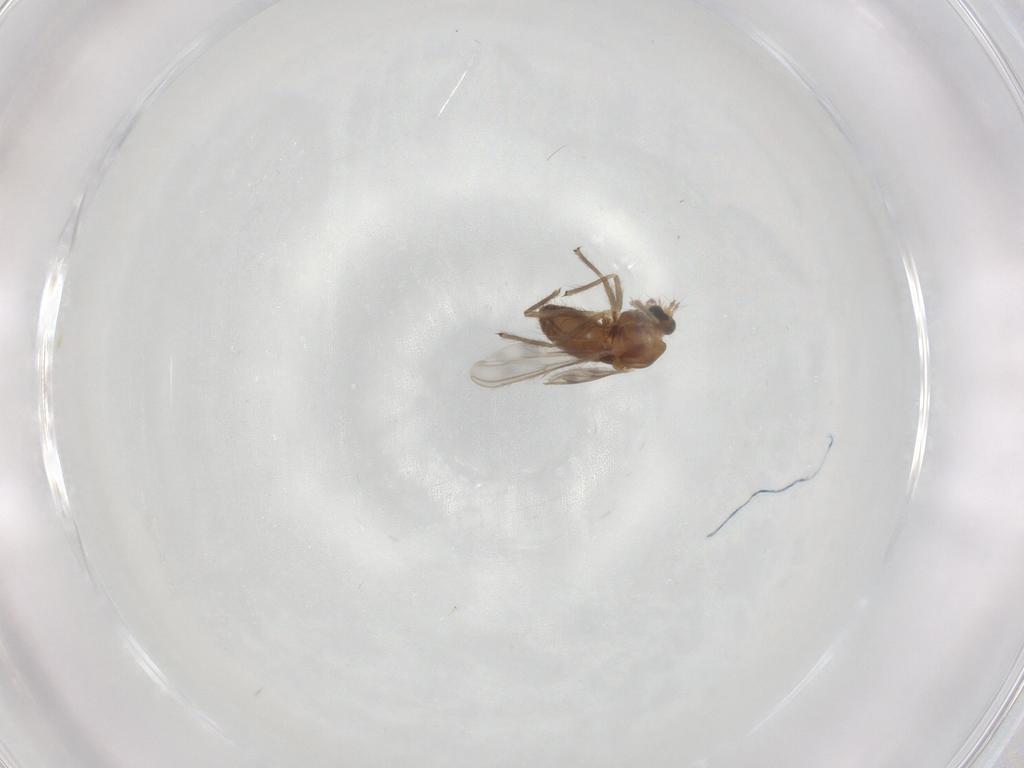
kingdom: Animalia
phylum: Arthropoda
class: Insecta
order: Diptera
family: Chironomidae
